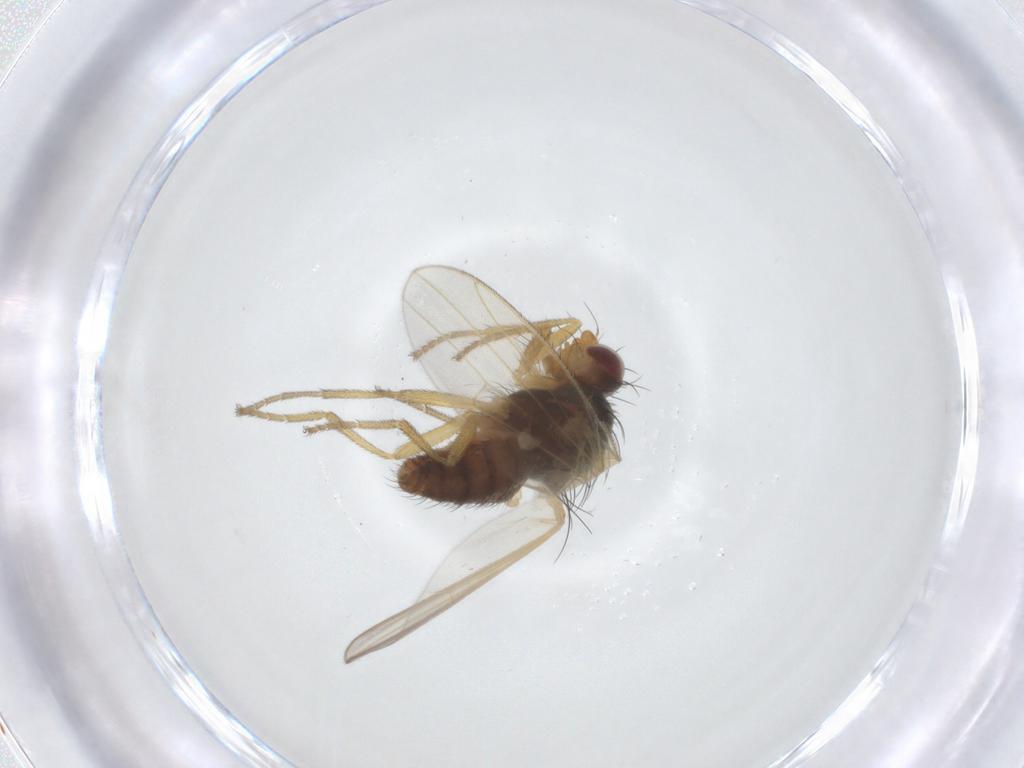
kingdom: Animalia
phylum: Arthropoda
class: Insecta
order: Diptera
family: Heleomyzidae
